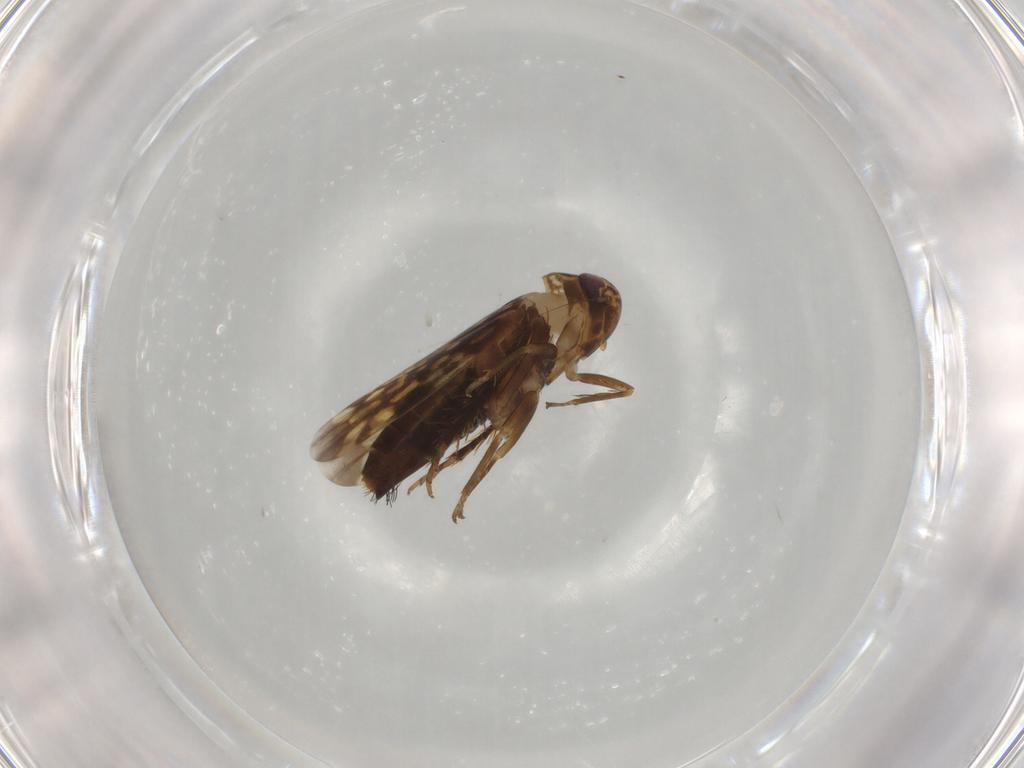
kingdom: Animalia
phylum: Arthropoda
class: Insecta
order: Hemiptera
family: Cicadellidae
